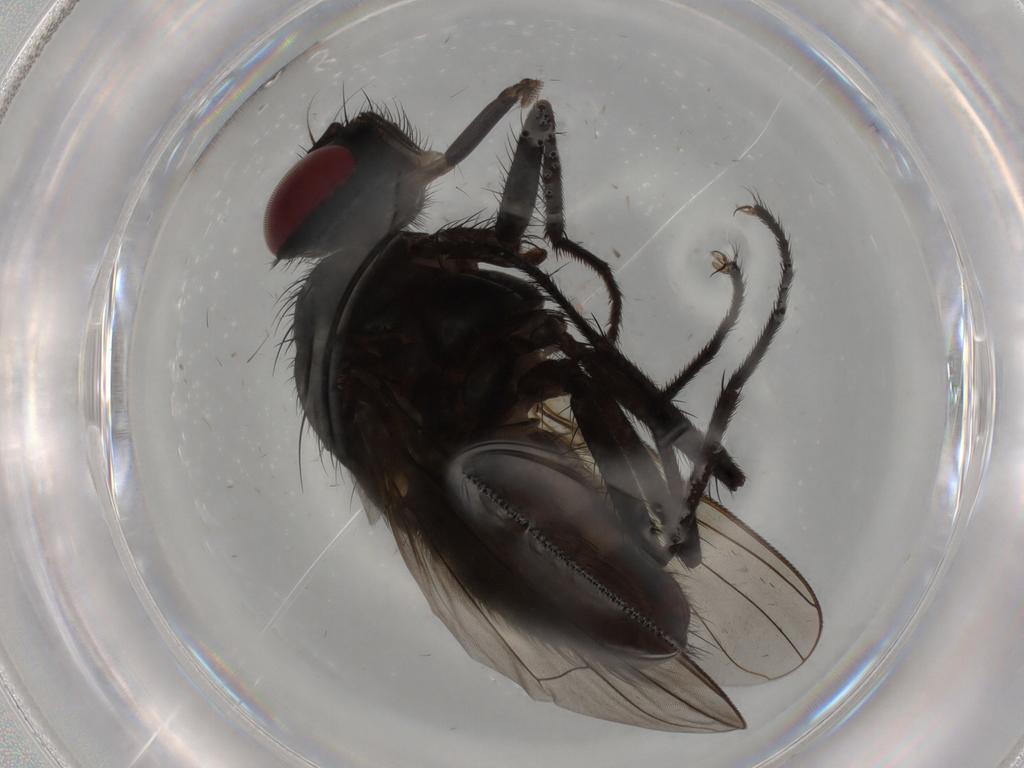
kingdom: Animalia
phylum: Arthropoda
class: Insecta
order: Diptera
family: Muscidae
